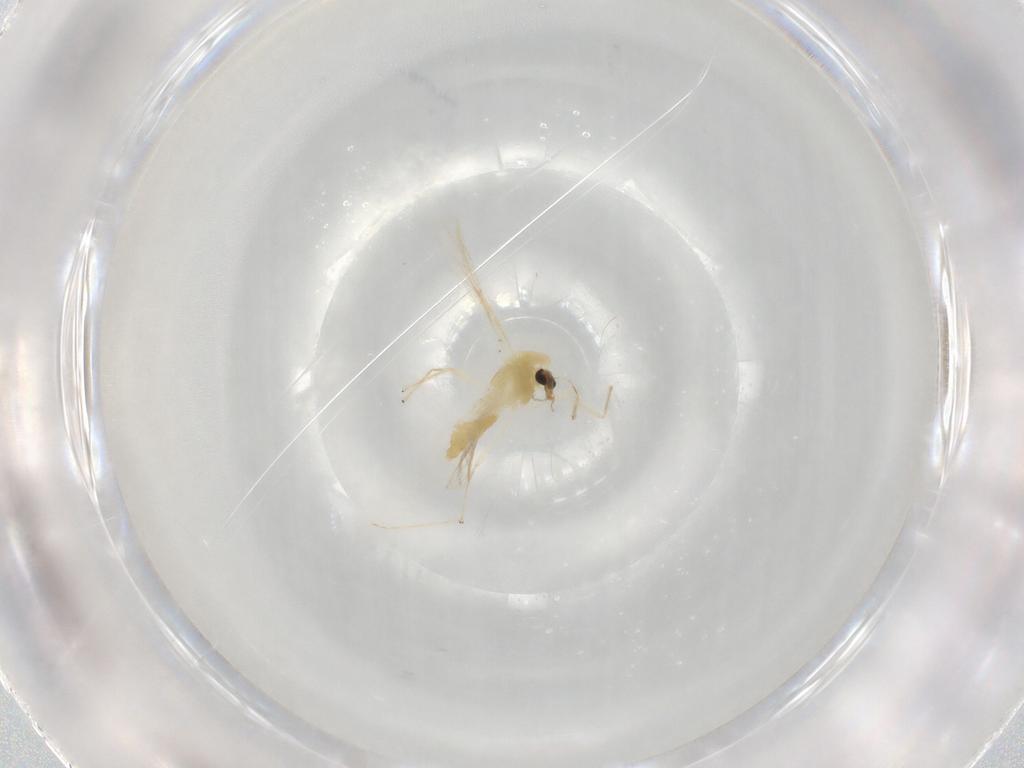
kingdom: Animalia
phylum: Arthropoda
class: Insecta
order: Diptera
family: Chironomidae
